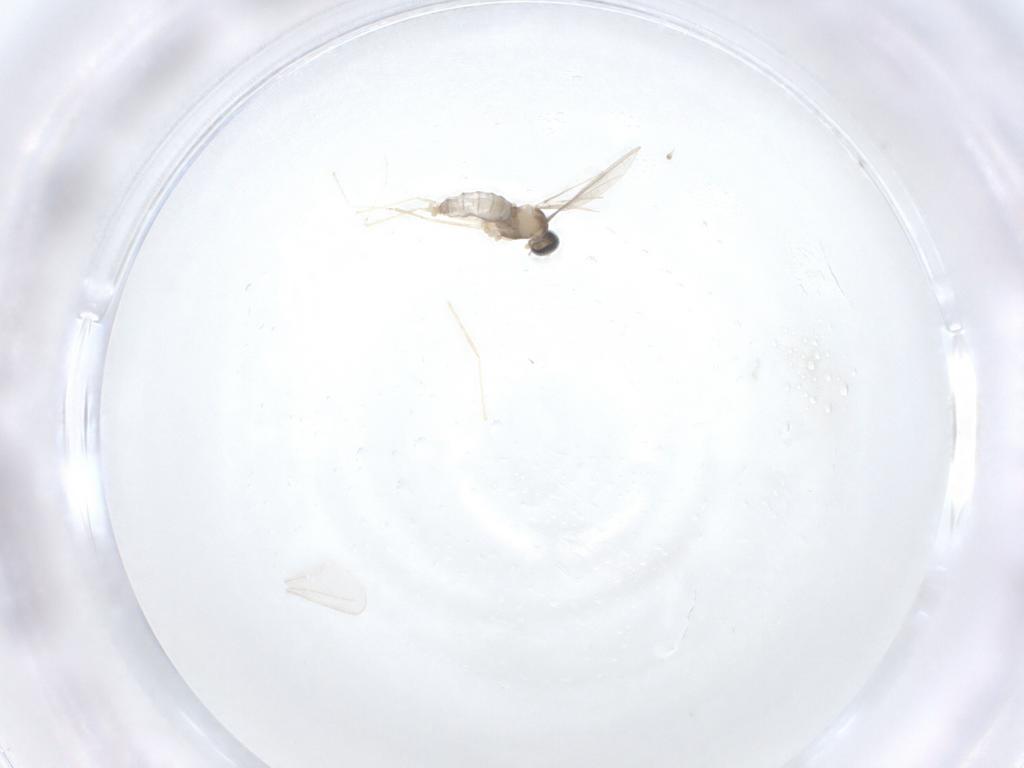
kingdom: Animalia
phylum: Arthropoda
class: Insecta
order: Diptera
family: Cecidomyiidae
